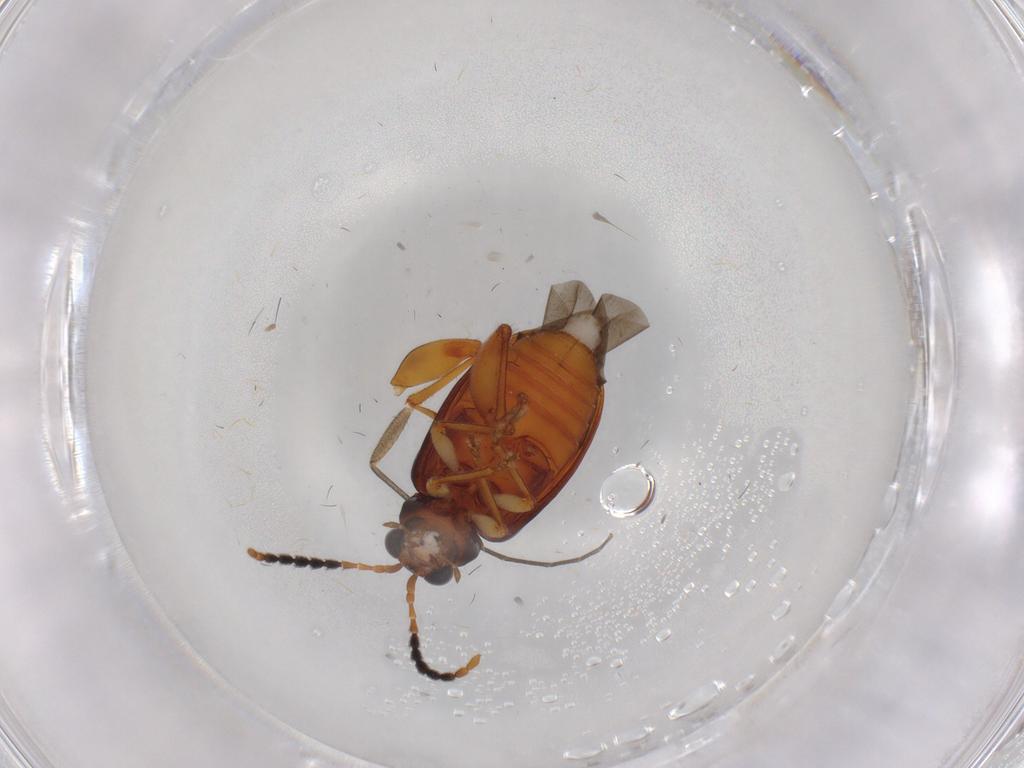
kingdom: Animalia
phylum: Arthropoda
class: Insecta
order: Coleoptera
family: Chrysomelidae
